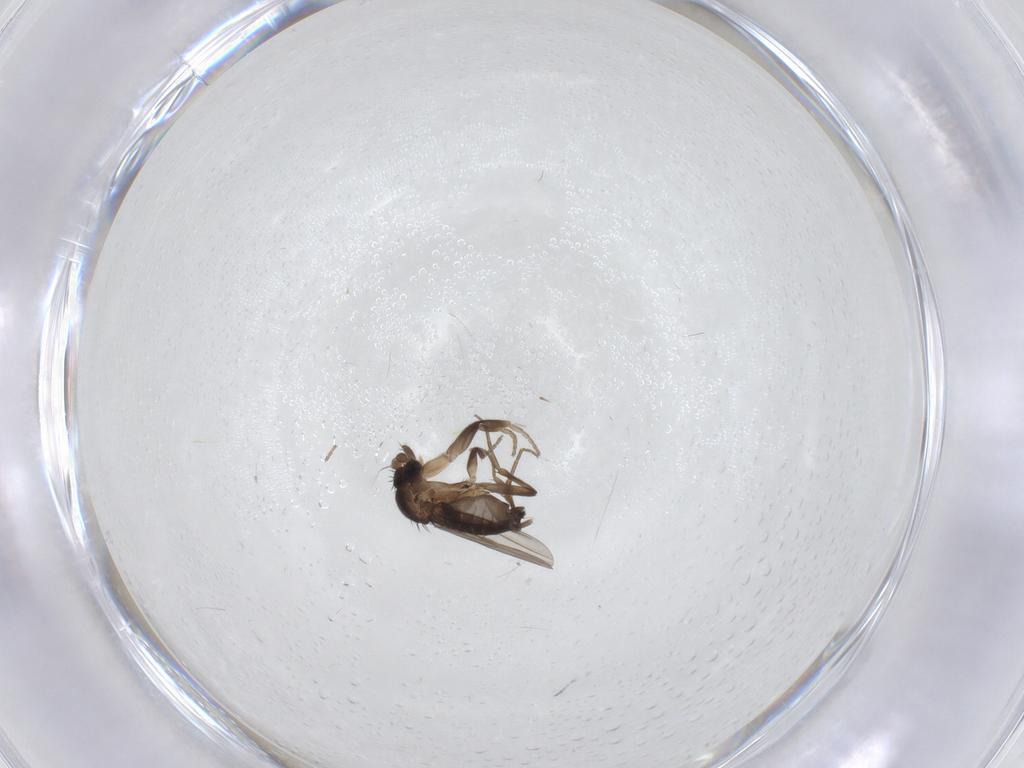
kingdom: Animalia
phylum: Arthropoda
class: Insecta
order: Diptera
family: Phoridae
